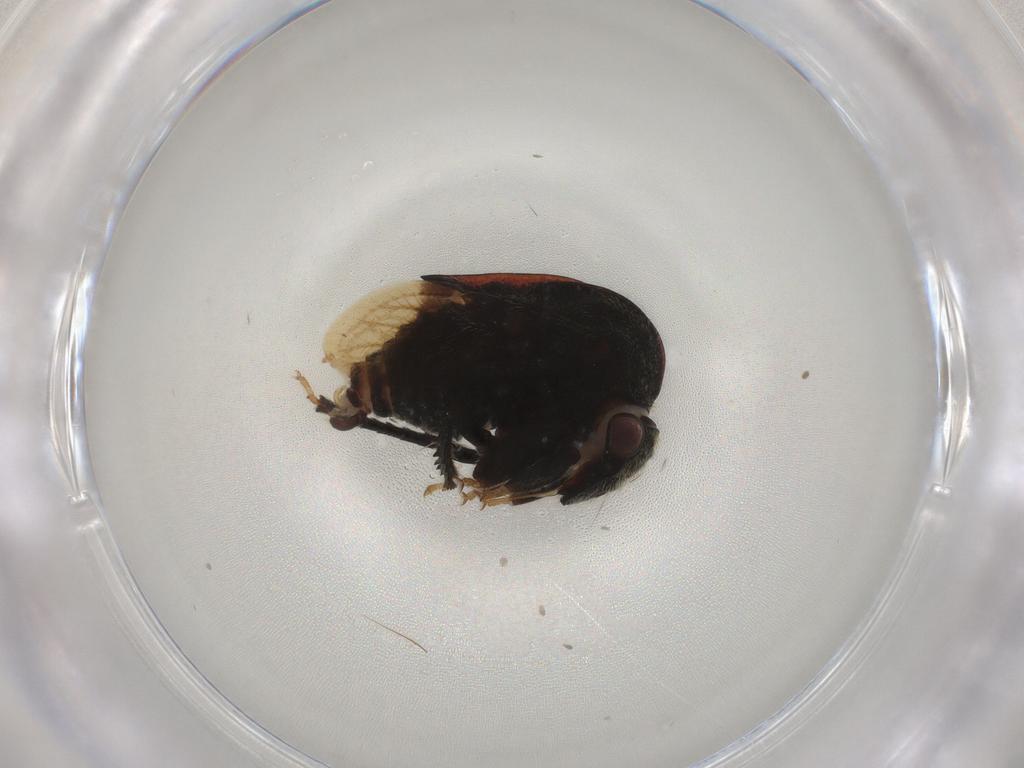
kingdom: Animalia
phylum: Arthropoda
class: Insecta
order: Hemiptera
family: Membracidae
